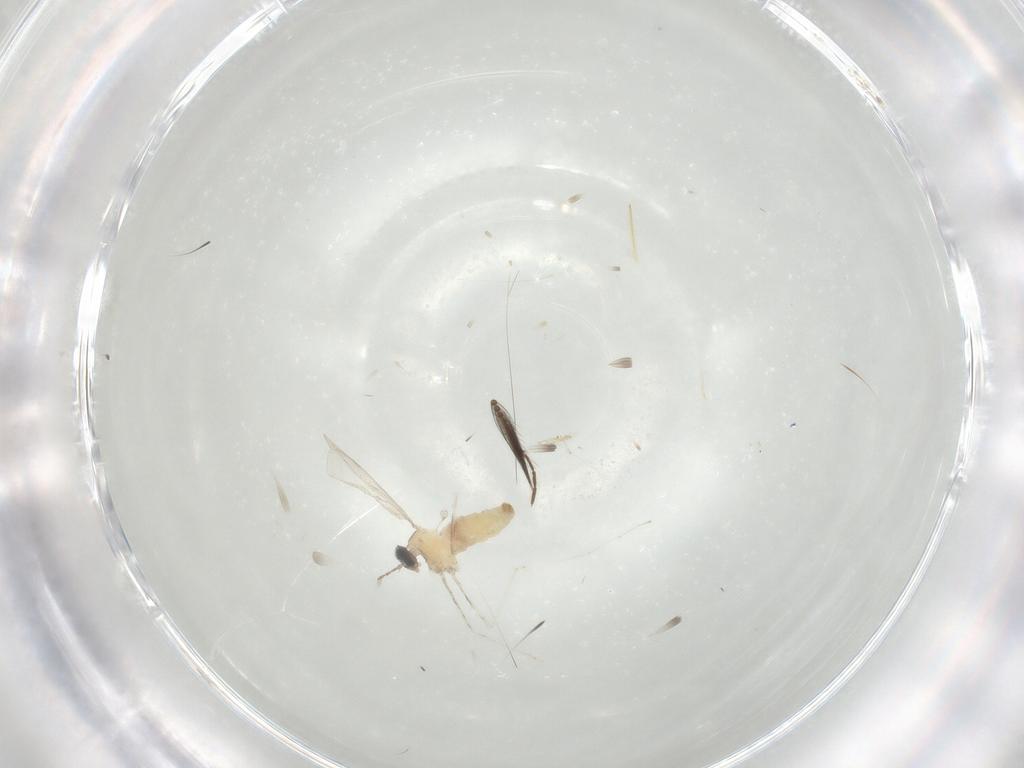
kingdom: Animalia
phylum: Arthropoda
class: Insecta
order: Diptera
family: Cecidomyiidae
